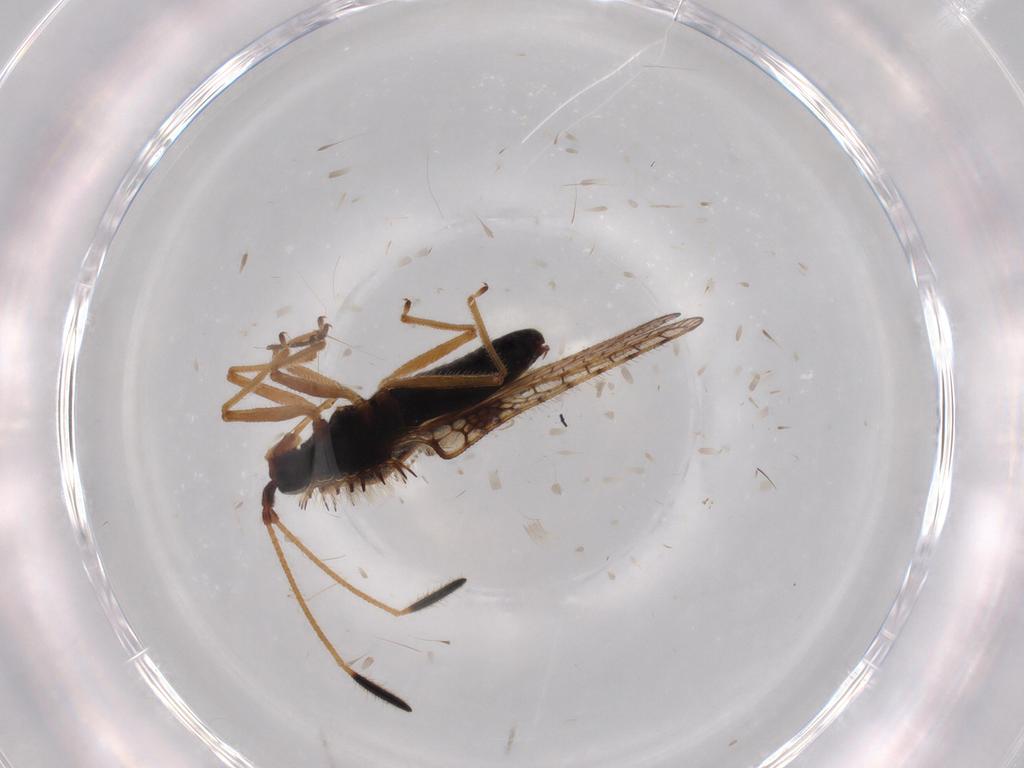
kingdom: Animalia
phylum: Arthropoda
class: Insecta
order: Hemiptera
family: Tingidae
